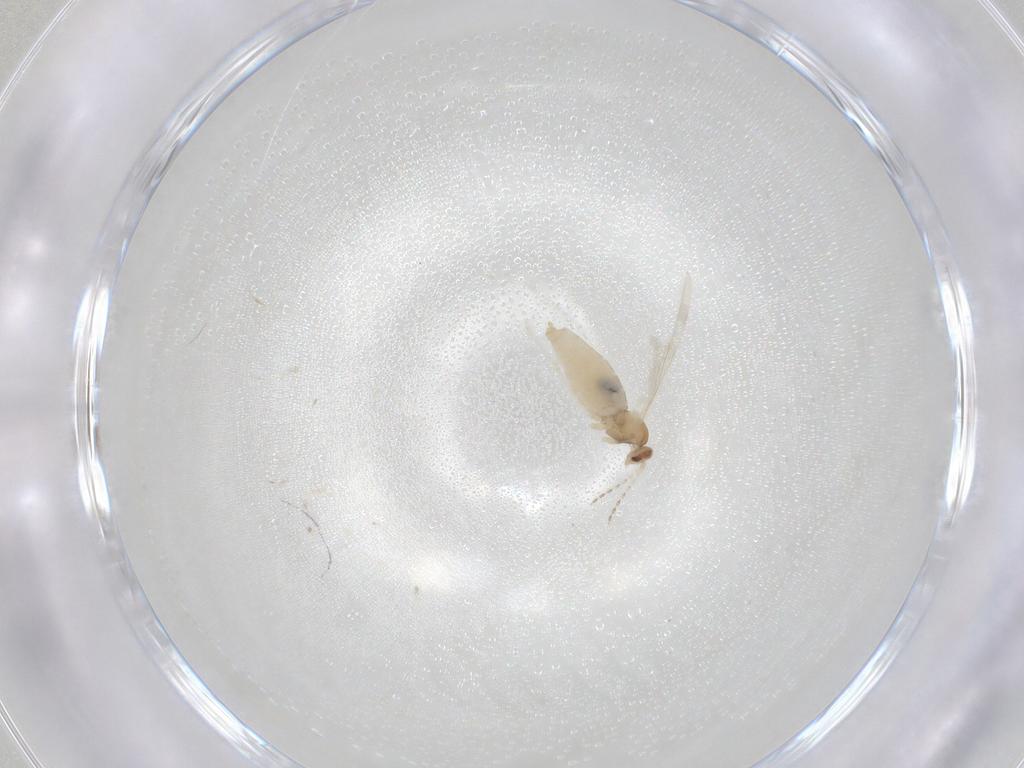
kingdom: Animalia
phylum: Arthropoda
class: Insecta
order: Diptera
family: Ceratopogonidae
